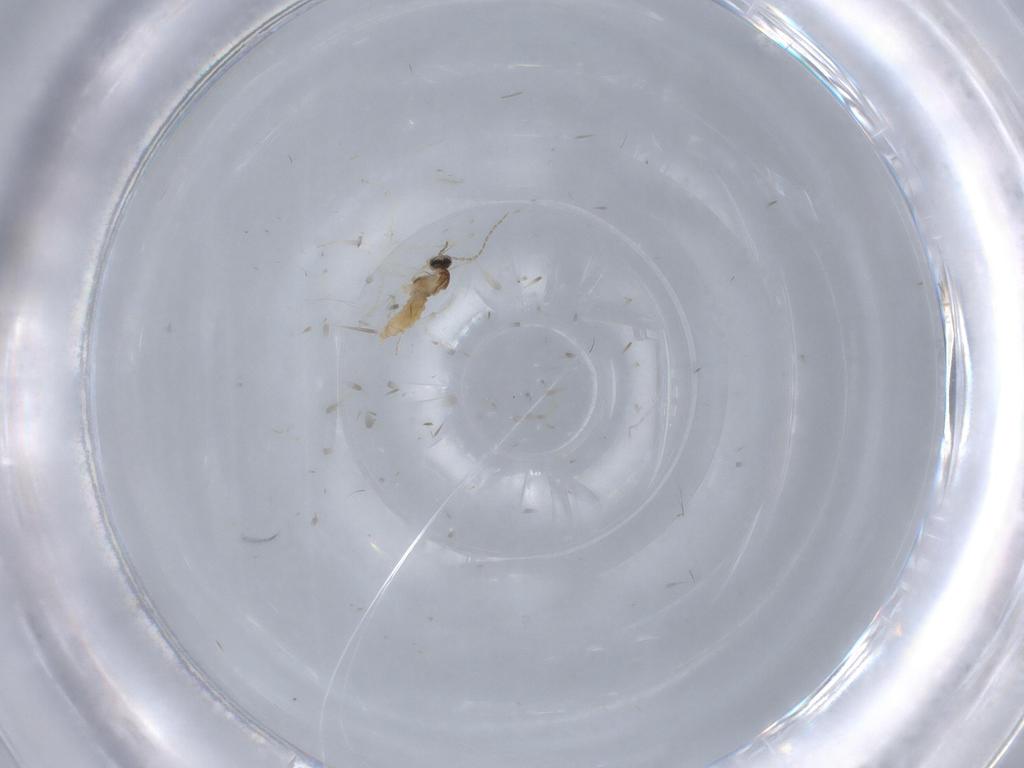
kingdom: Animalia
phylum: Arthropoda
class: Insecta
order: Diptera
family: Cecidomyiidae
